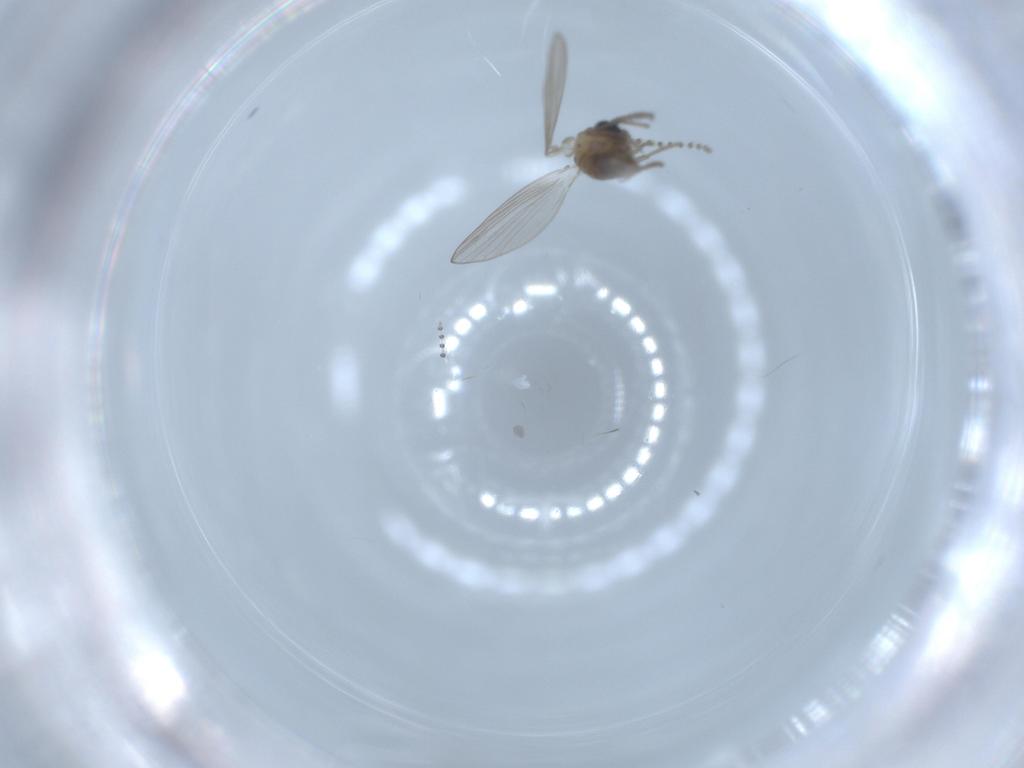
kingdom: Animalia
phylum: Arthropoda
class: Insecta
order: Diptera
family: Psychodidae
